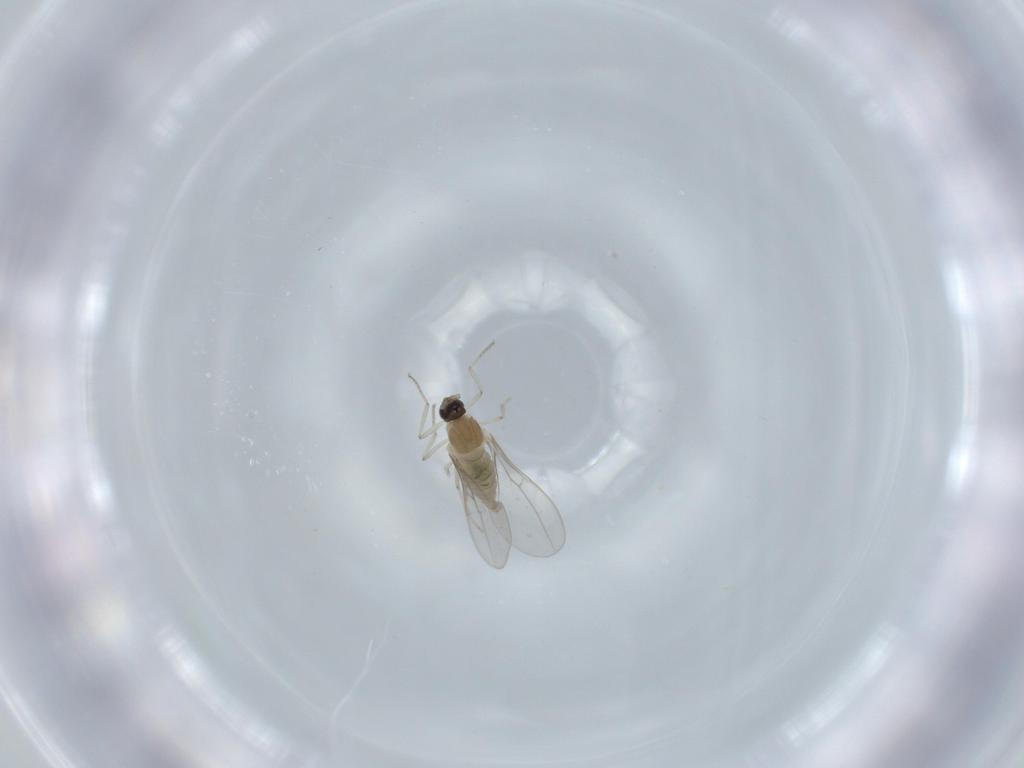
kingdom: Animalia
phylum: Arthropoda
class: Insecta
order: Diptera
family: Cecidomyiidae
